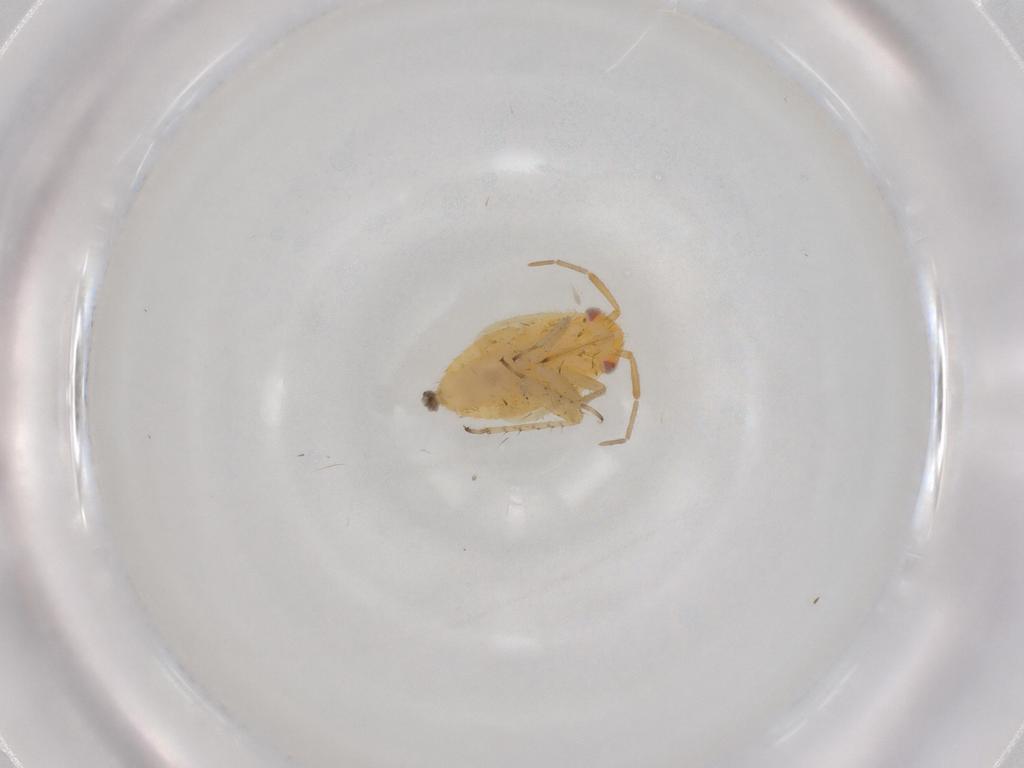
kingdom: Animalia
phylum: Arthropoda
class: Insecta
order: Hemiptera
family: Miridae
